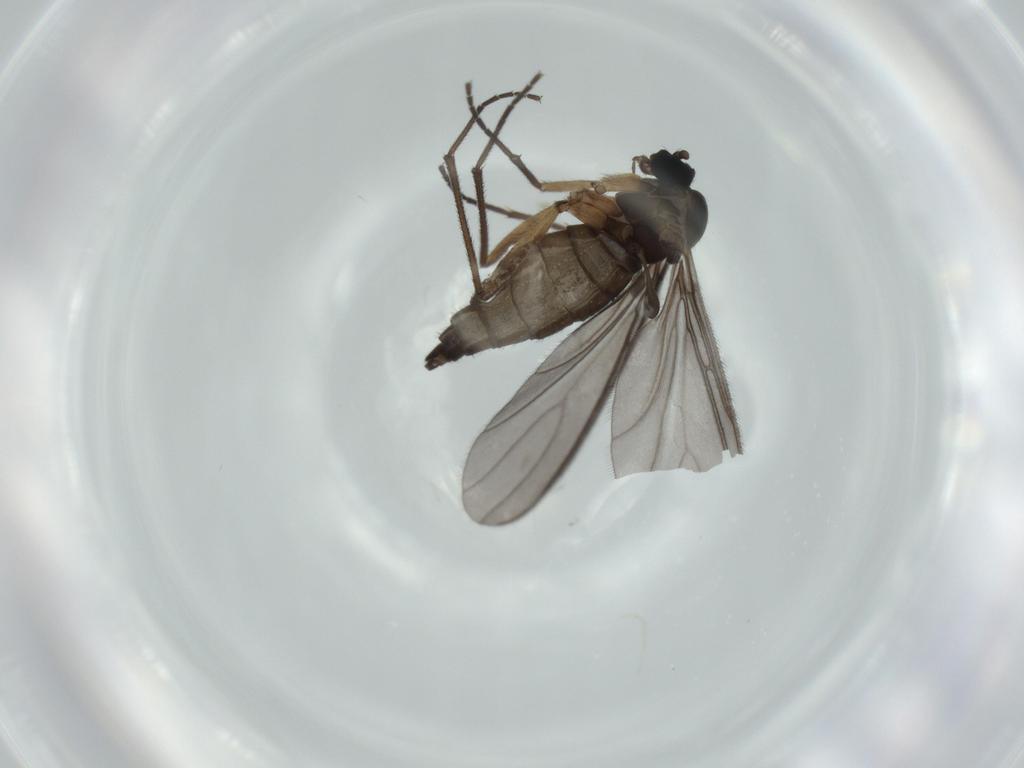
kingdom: Animalia
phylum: Arthropoda
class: Insecta
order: Diptera
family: Sciaridae
